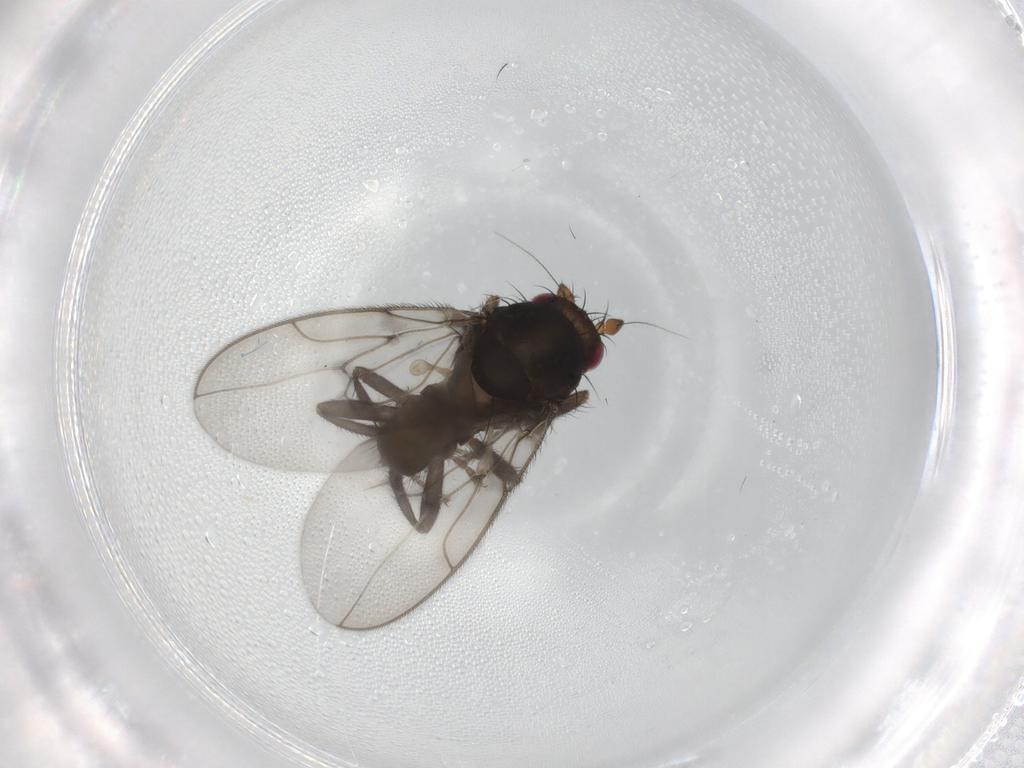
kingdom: Animalia
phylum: Arthropoda
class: Insecta
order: Diptera
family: Sphaeroceridae
